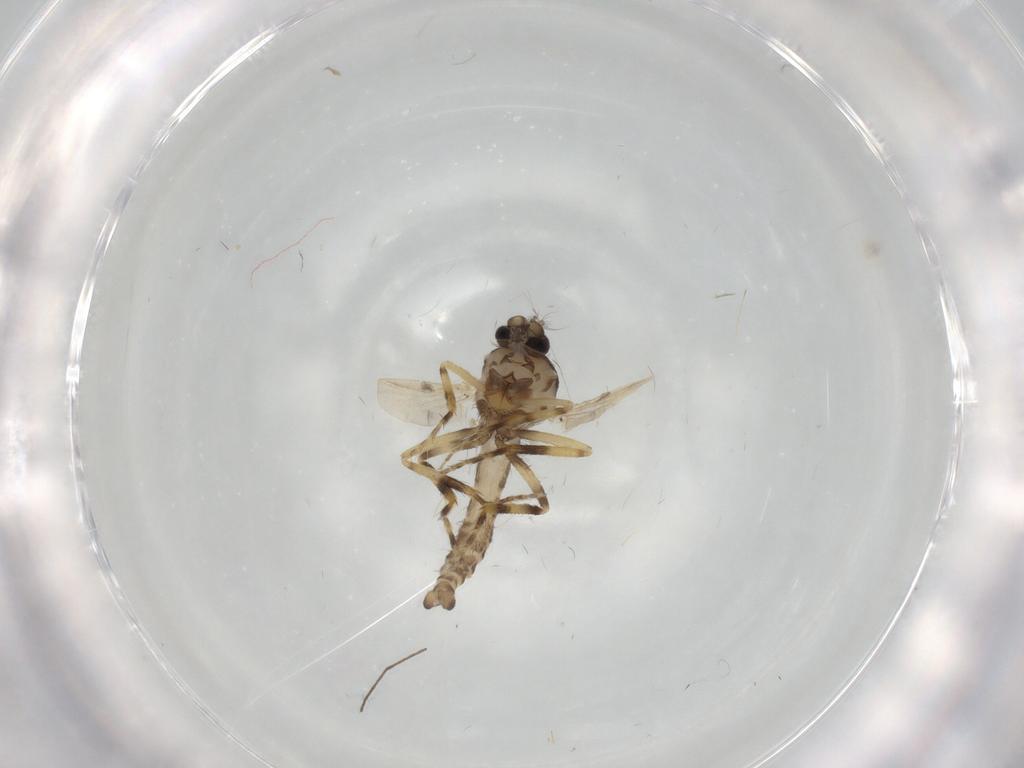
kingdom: Animalia
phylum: Arthropoda
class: Insecta
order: Diptera
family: Ceratopogonidae
